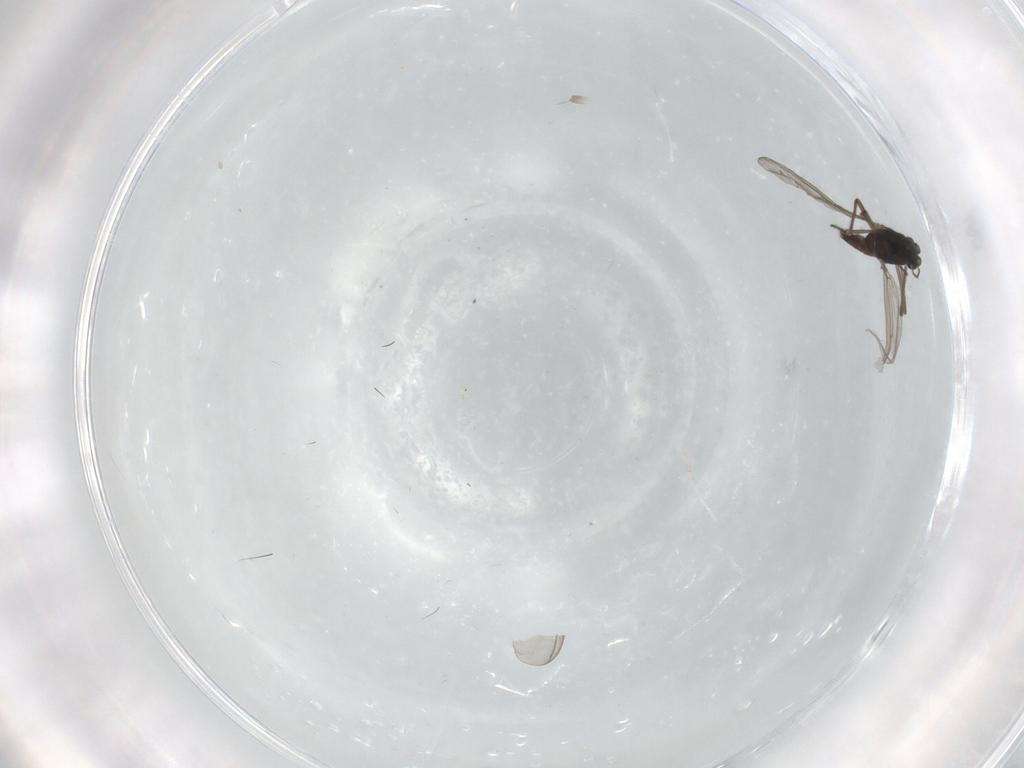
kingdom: Animalia
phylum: Arthropoda
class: Insecta
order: Diptera
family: Chironomidae
